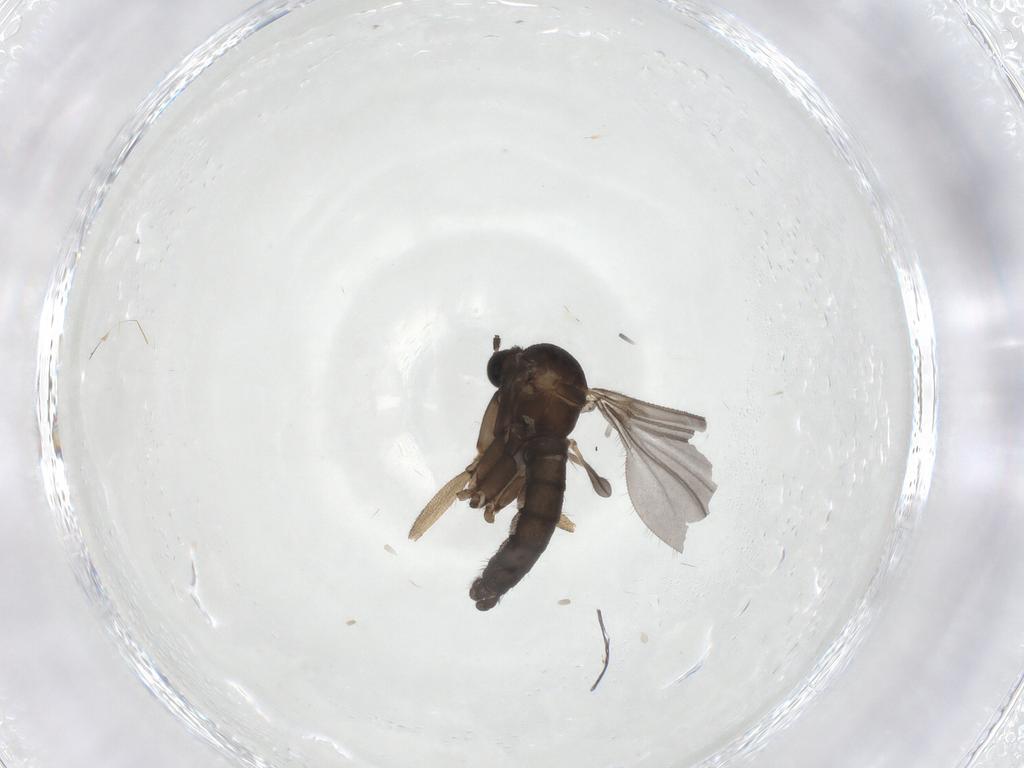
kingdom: Animalia
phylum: Arthropoda
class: Insecta
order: Diptera
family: Sciaridae
